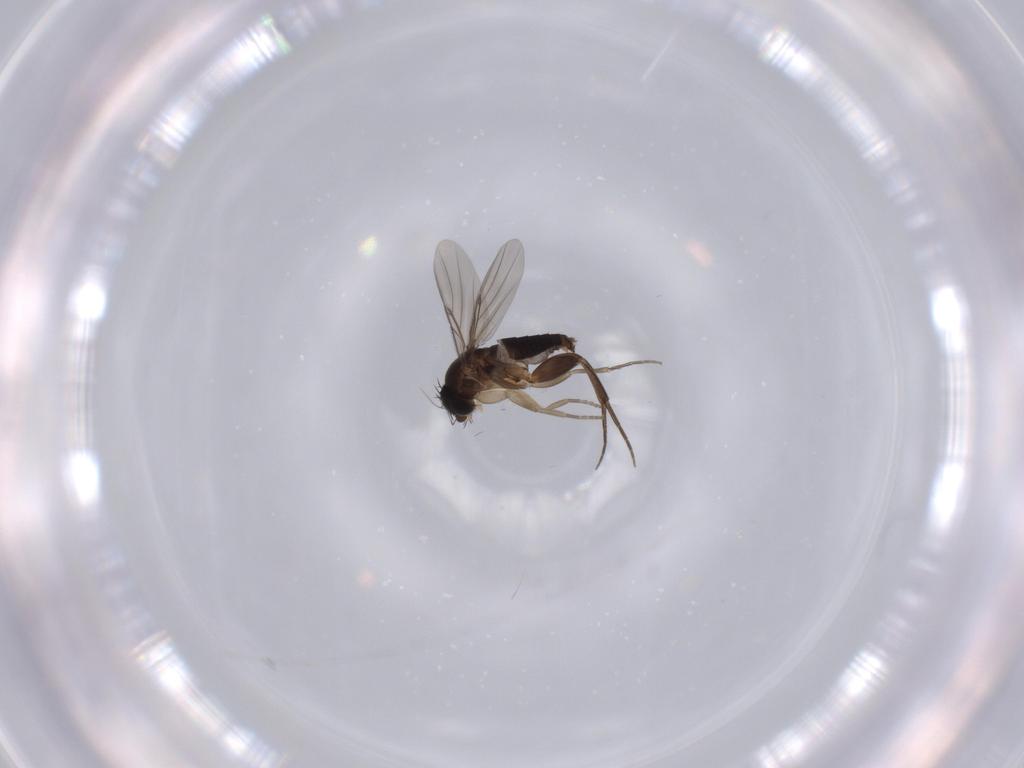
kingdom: Animalia
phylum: Arthropoda
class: Insecta
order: Diptera
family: Phoridae
